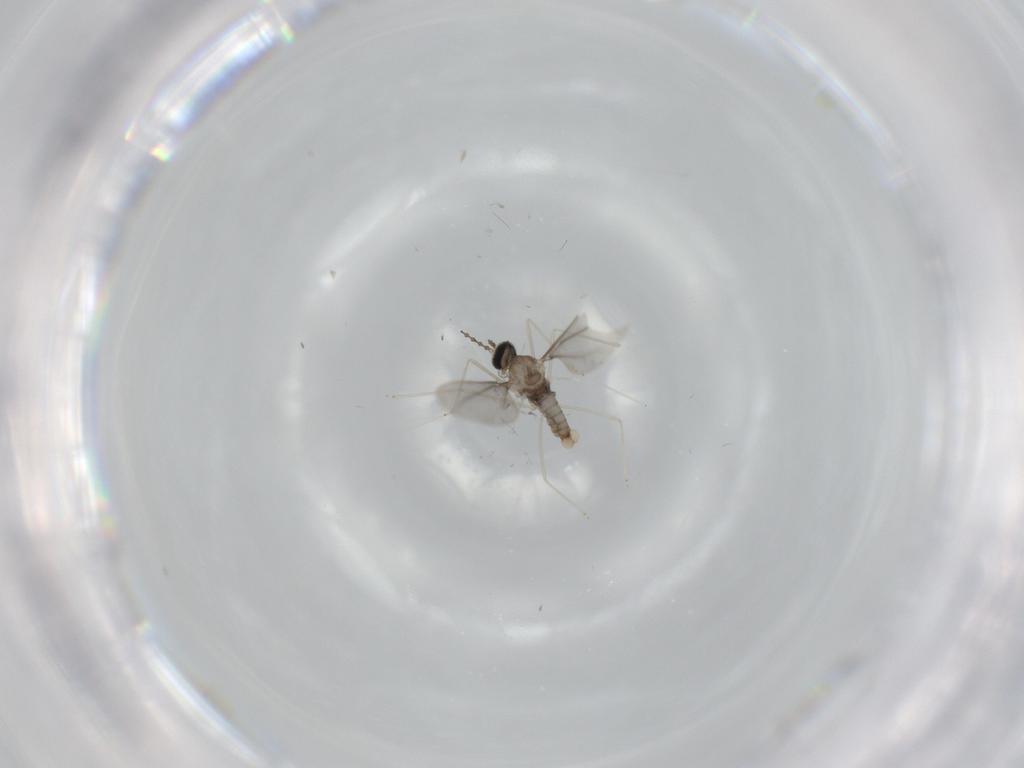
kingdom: Animalia
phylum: Arthropoda
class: Insecta
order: Diptera
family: Cecidomyiidae
